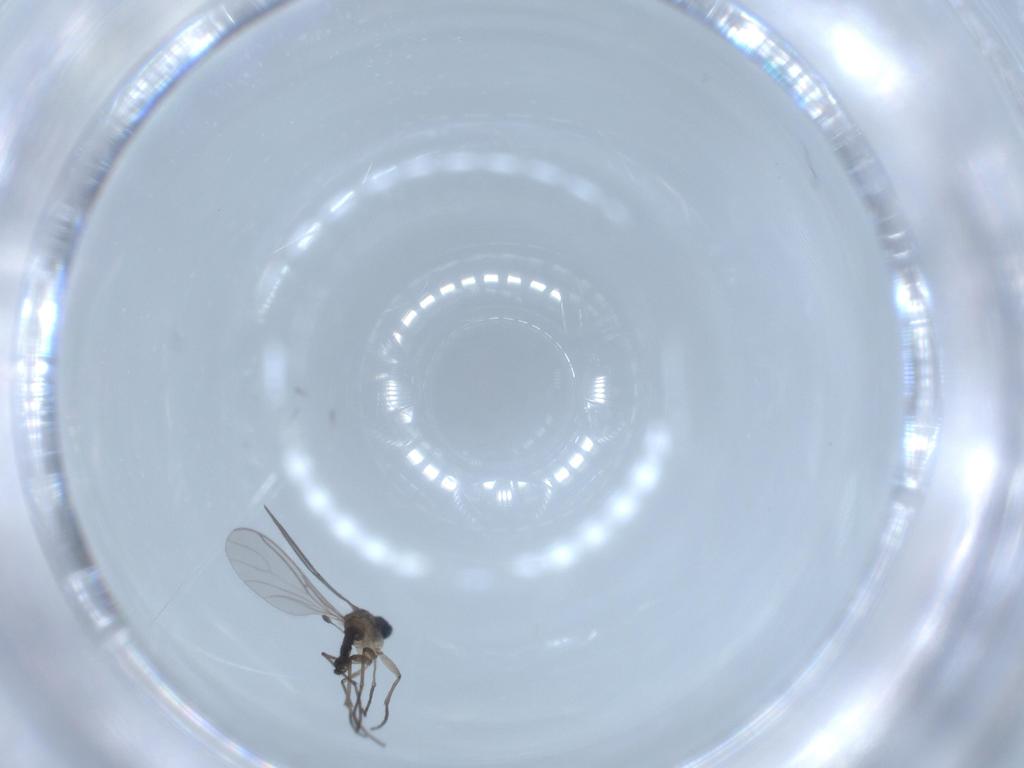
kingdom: Animalia
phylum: Arthropoda
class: Insecta
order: Diptera
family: Sciaridae
